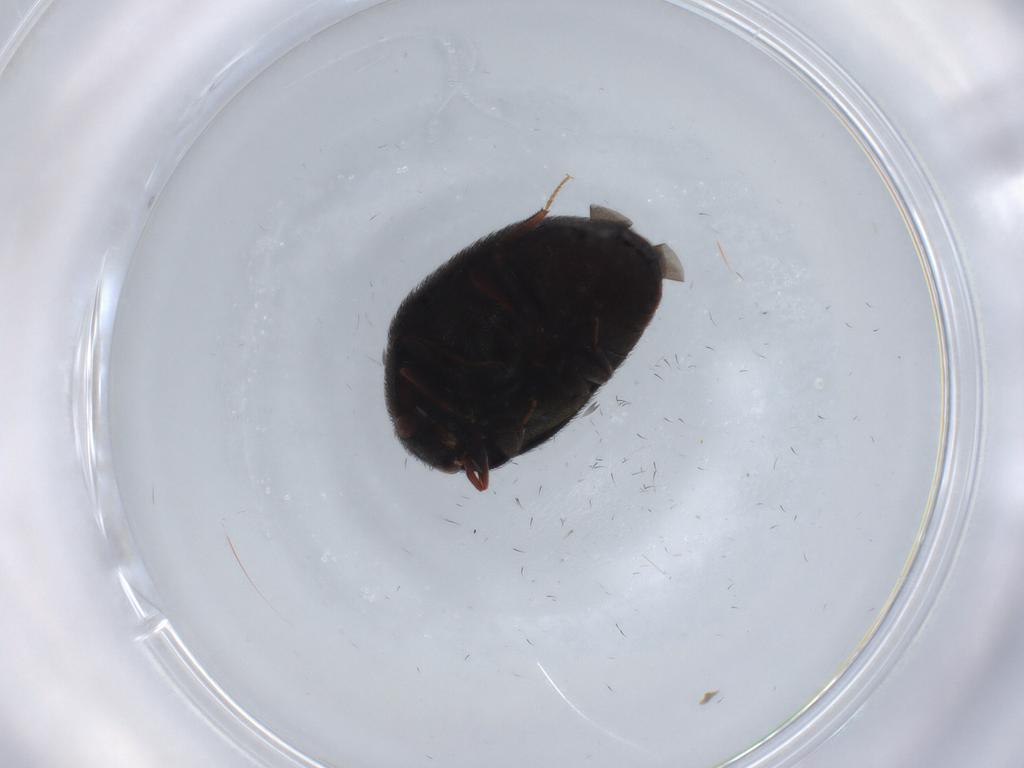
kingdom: Animalia
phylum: Arthropoda
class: Insecta
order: Coleoptera
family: Dermestidae
